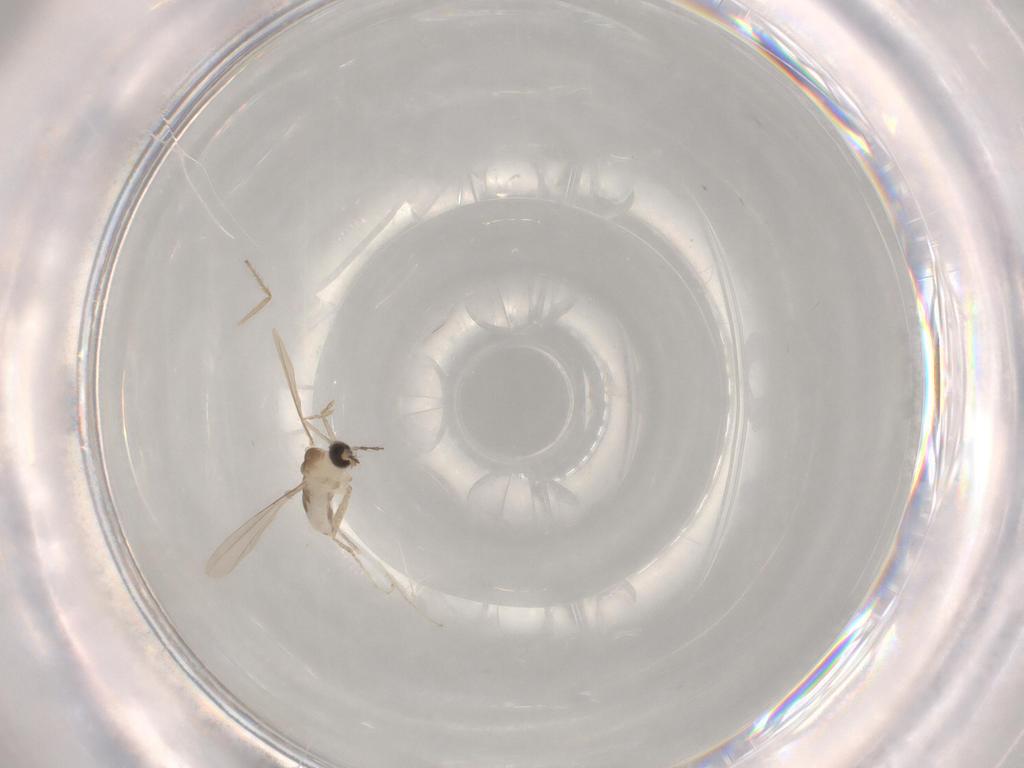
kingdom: Animalia
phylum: Arthropoda
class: Insecta
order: Diptera
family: Cecidomyiidae
